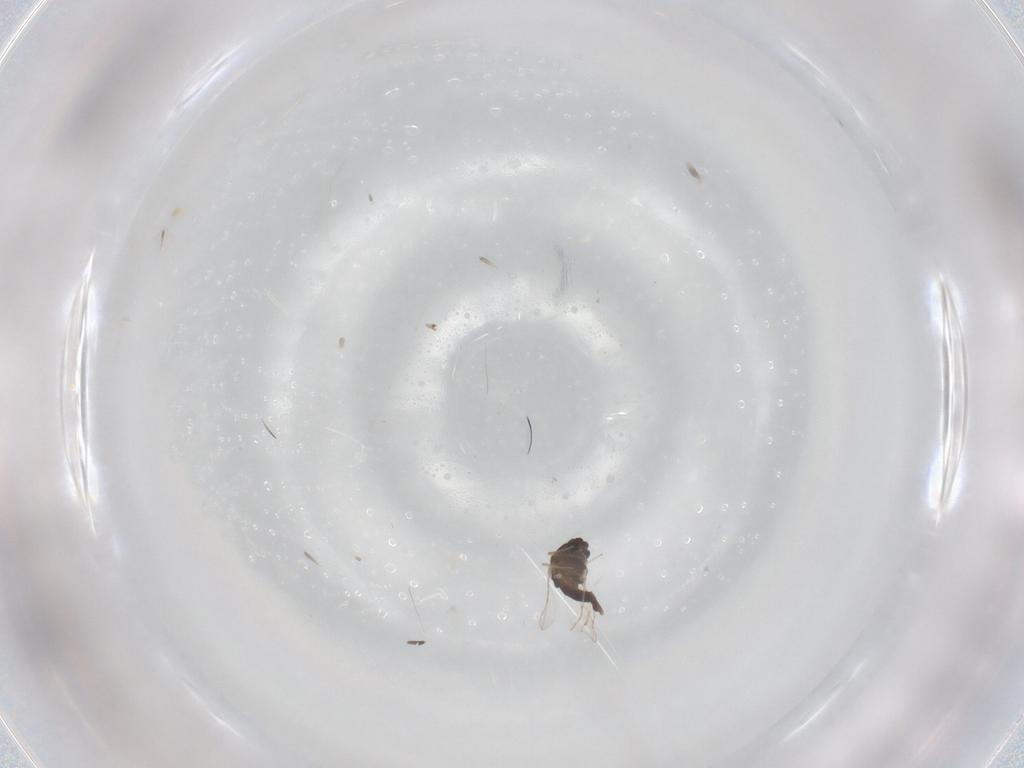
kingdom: Animalia
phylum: Arthropoda
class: Insecta
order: Diptera
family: Chironomidae
